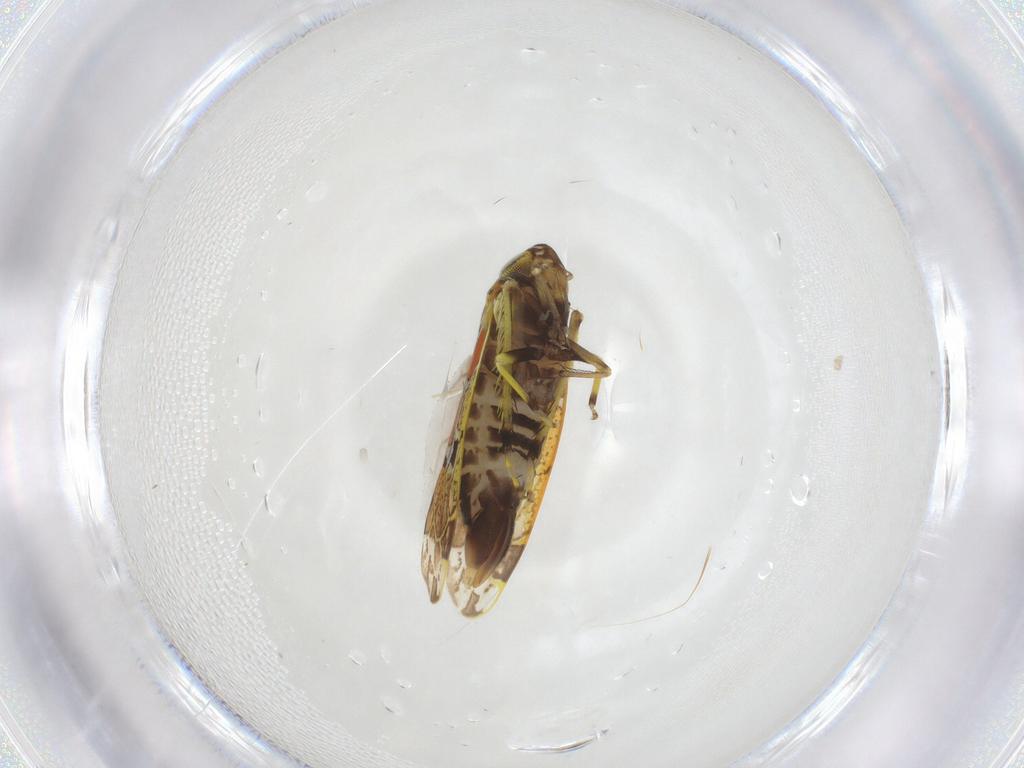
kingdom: Animalia
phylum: Arthropoda
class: Insecta
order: Hemiptera
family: Cicadellidae
